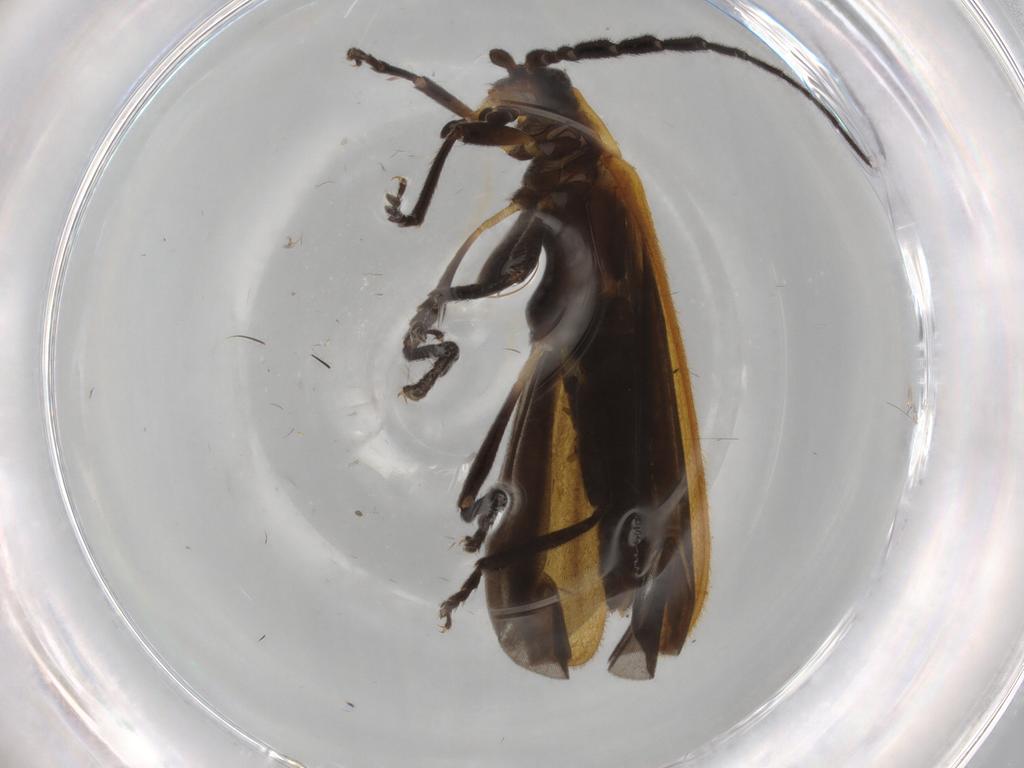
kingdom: Animalia
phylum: Arthropoda
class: Insecta
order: Coleoptera
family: Lycidae
